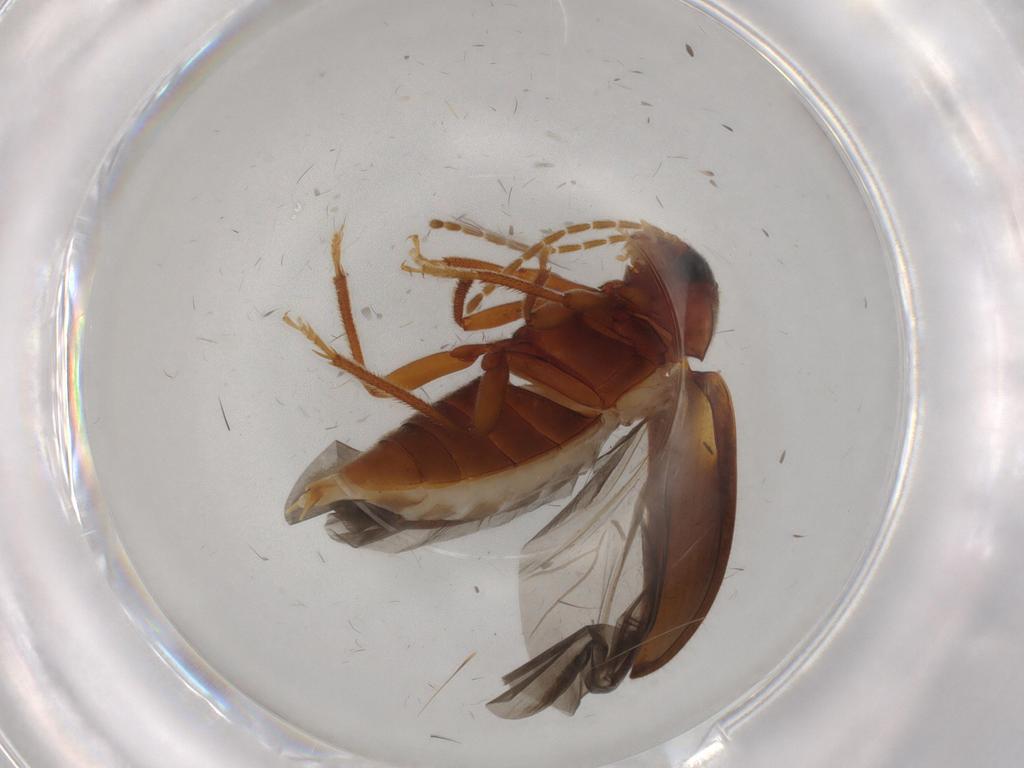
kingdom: Animalia
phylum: Arthropoda
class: Insecta
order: Coleoptera
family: Ptilodactylidae
